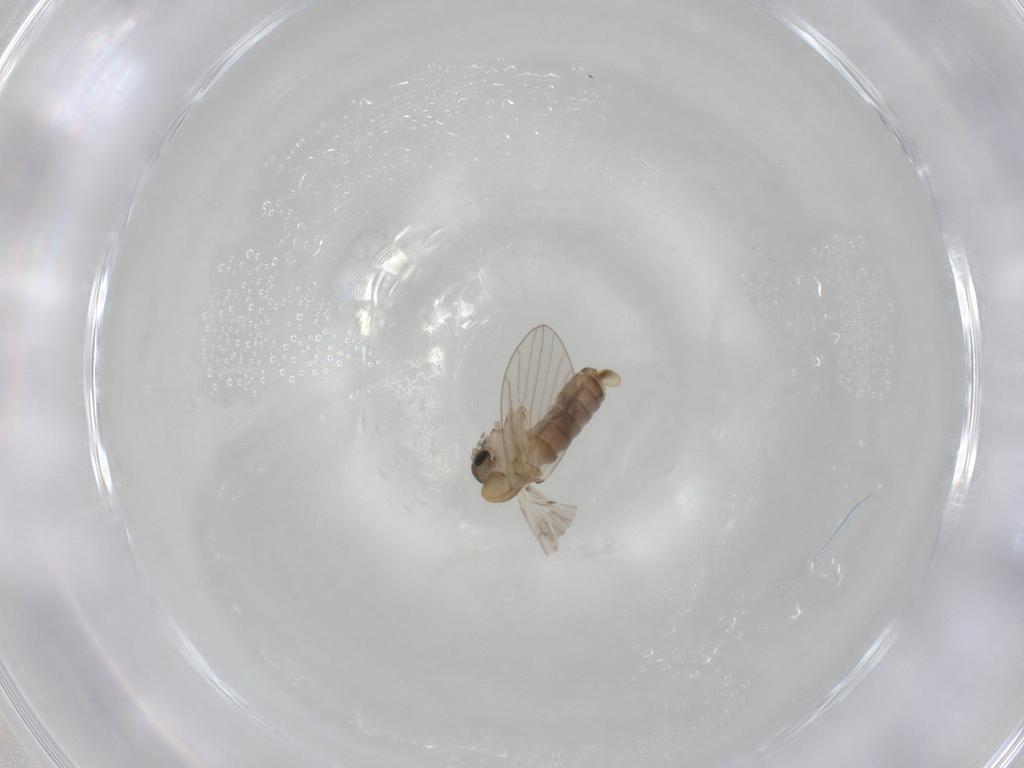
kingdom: Animalia
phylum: Arthropoda
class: Insecta
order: Diptera
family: Psychodidae
